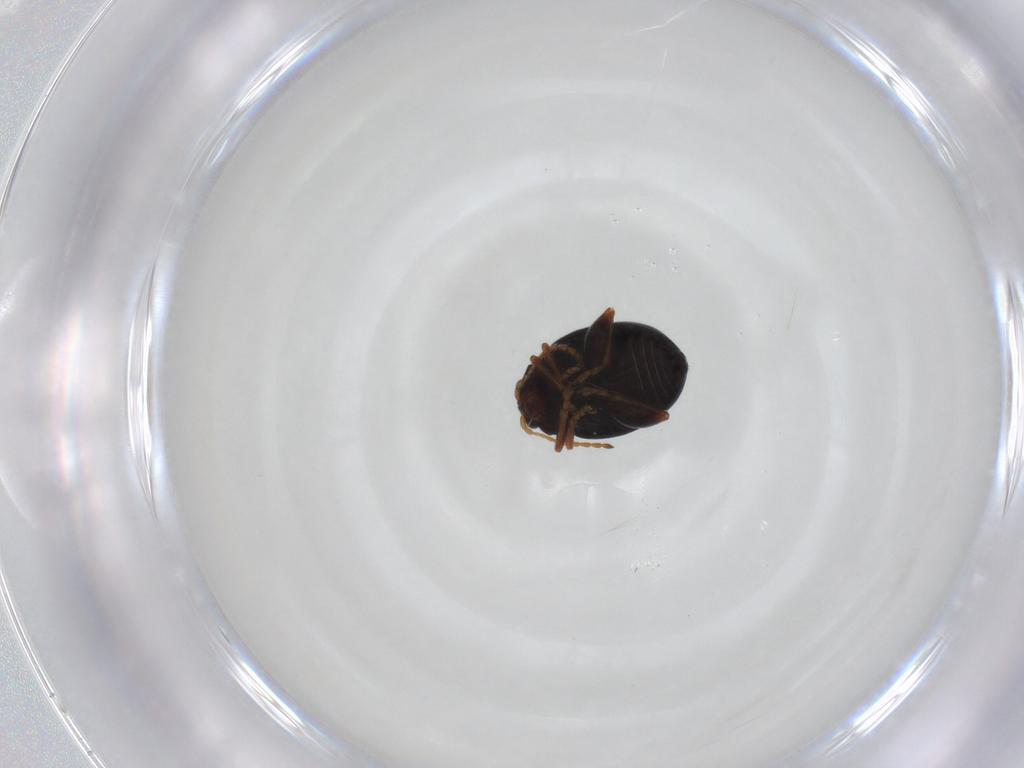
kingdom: Animalia
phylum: Arthropoda
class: Insecta
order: Coleoptera
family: Chrysomelidae
